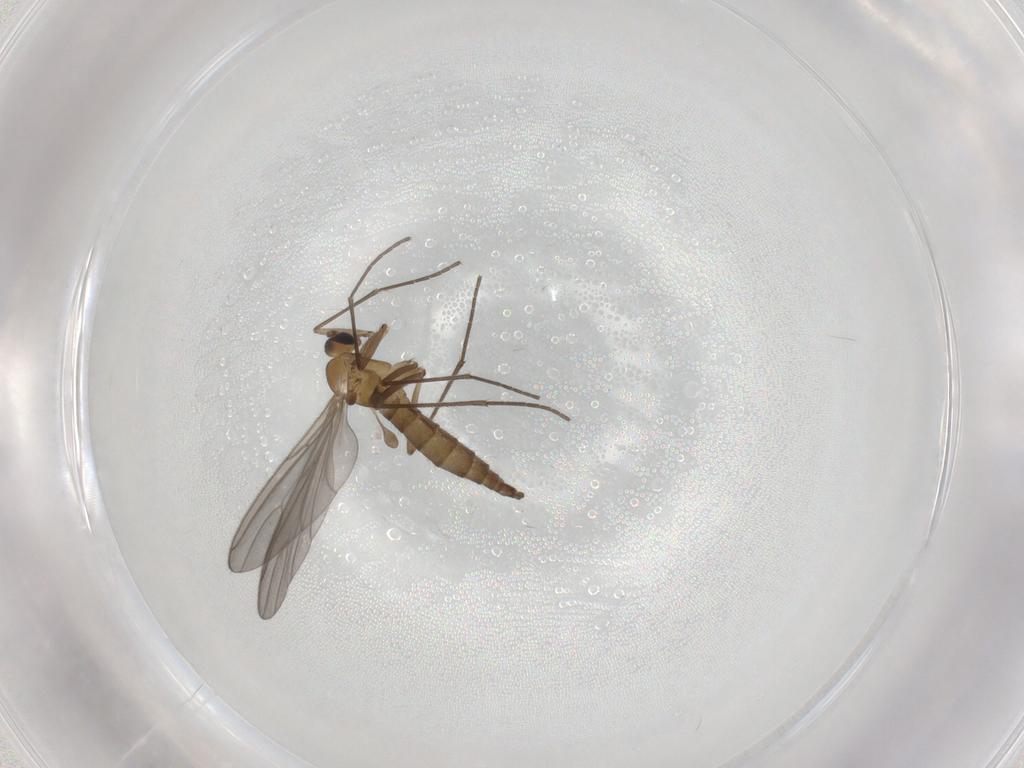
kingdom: Animalia
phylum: Arthropoda
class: Insecta
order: Diptera
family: Sciaridae
